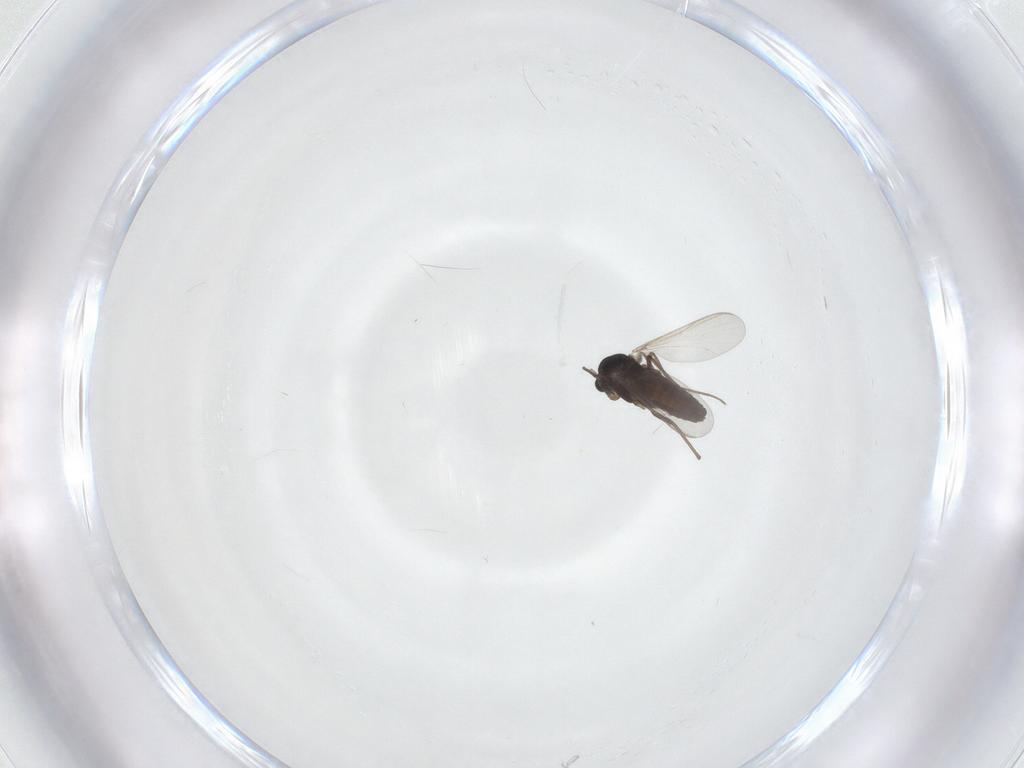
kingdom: Animalia
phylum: Arthropoda
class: Insecta
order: Diptera
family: Chironomidae
